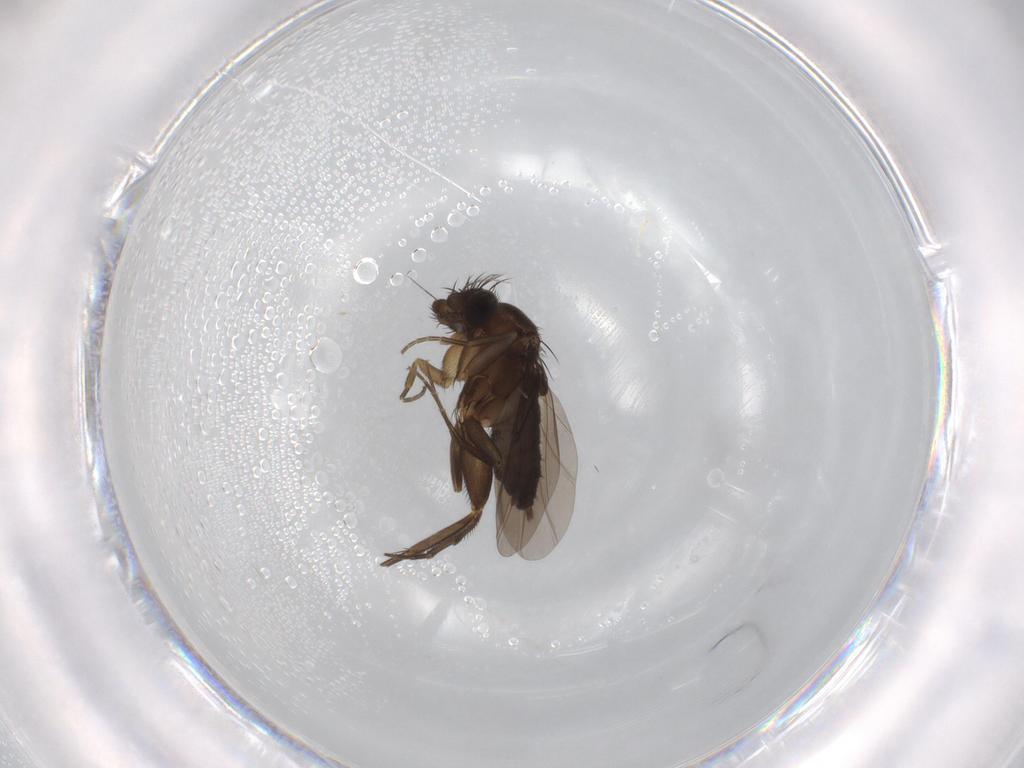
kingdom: Animalia
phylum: Arthropoda
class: Insecta
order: Diptera
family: Phoridae
